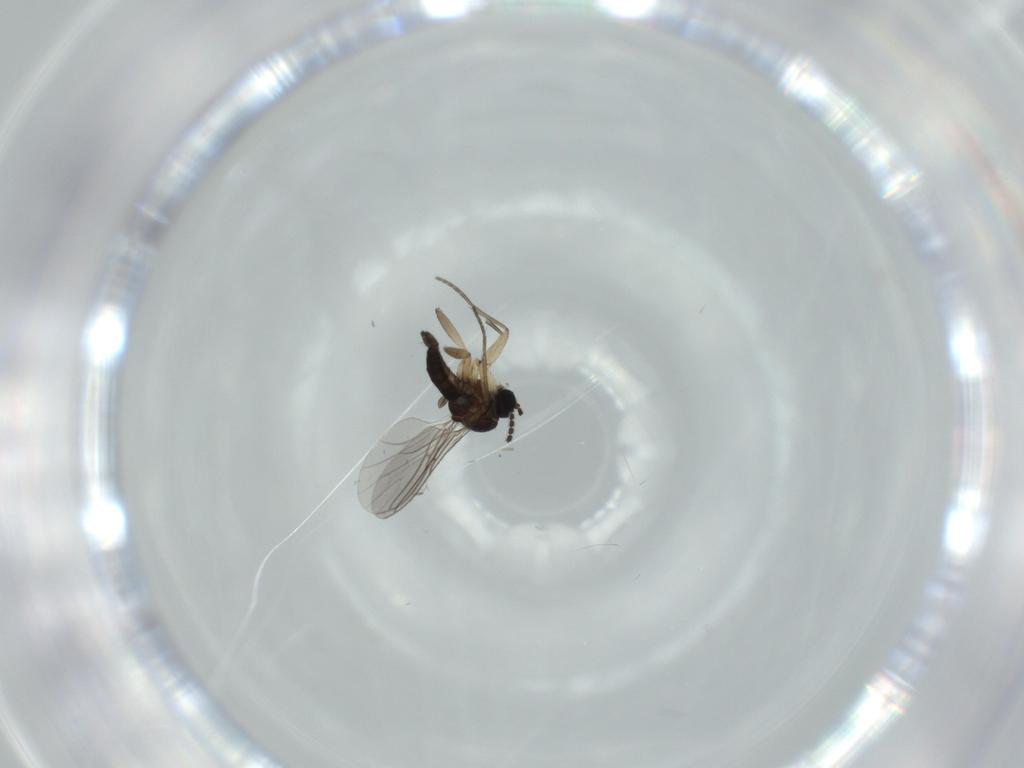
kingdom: Animalia
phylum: Arthropoda
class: Insecta
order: Diptera
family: Sciaridae
